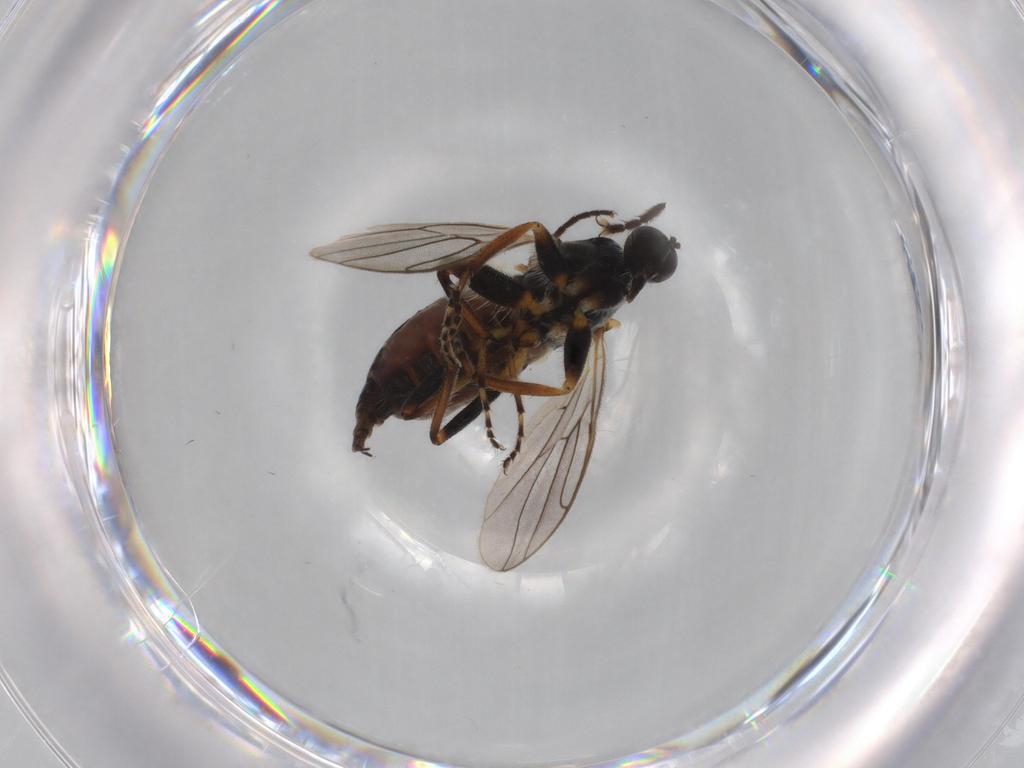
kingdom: Animalia
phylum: Arthropoda
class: Insecta
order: Diptera
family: Hybotidae
